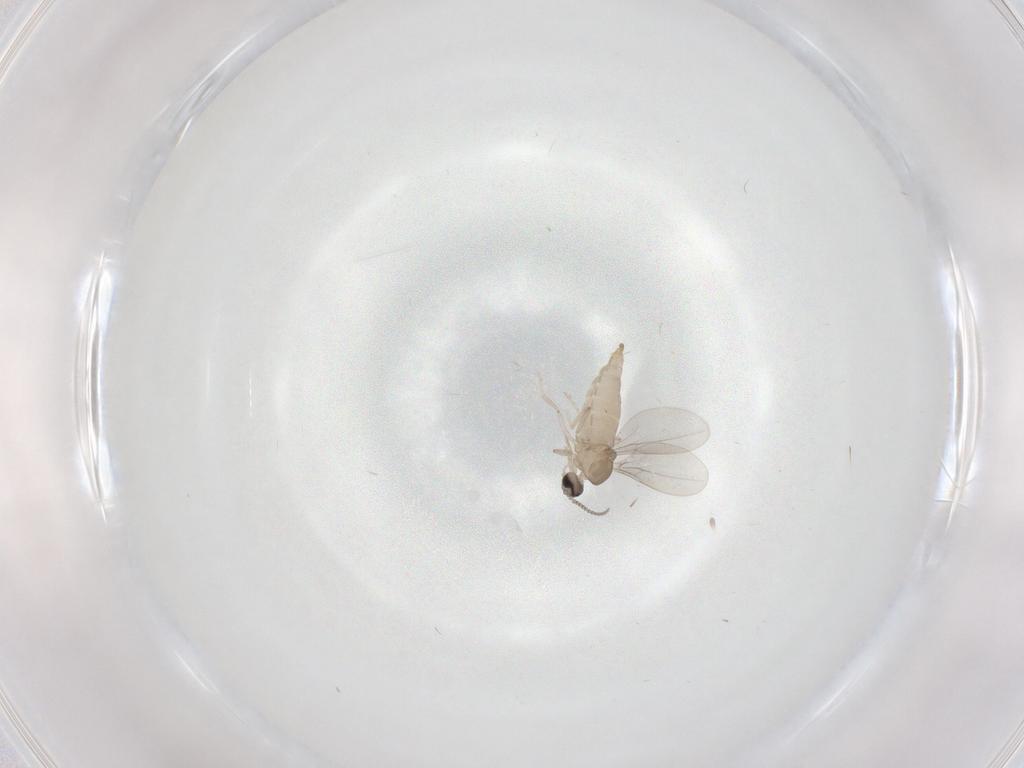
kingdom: Animalia
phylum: Arthropoda
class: Insecta
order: Diptera
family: Cecidomyiidae
